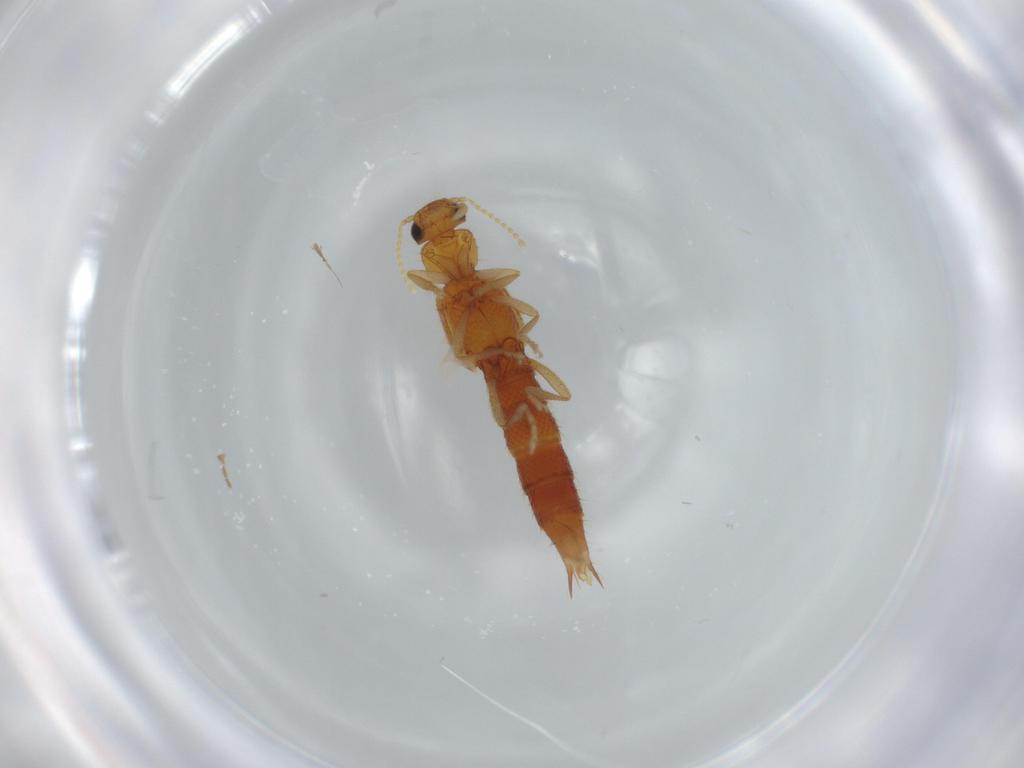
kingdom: Animalia
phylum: Arthropoda
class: Insecta
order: Coleoptera
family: Staphylinidae
